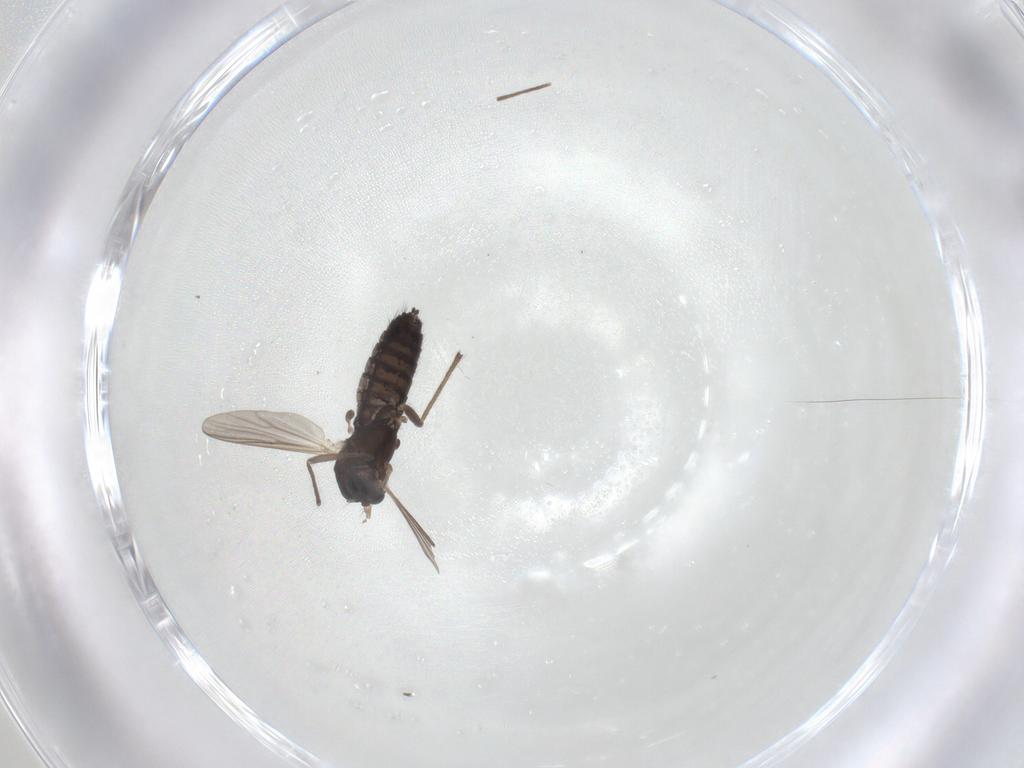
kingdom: Animalia
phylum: Arthropoda
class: Insecta
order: Diptera
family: Chironomidae
